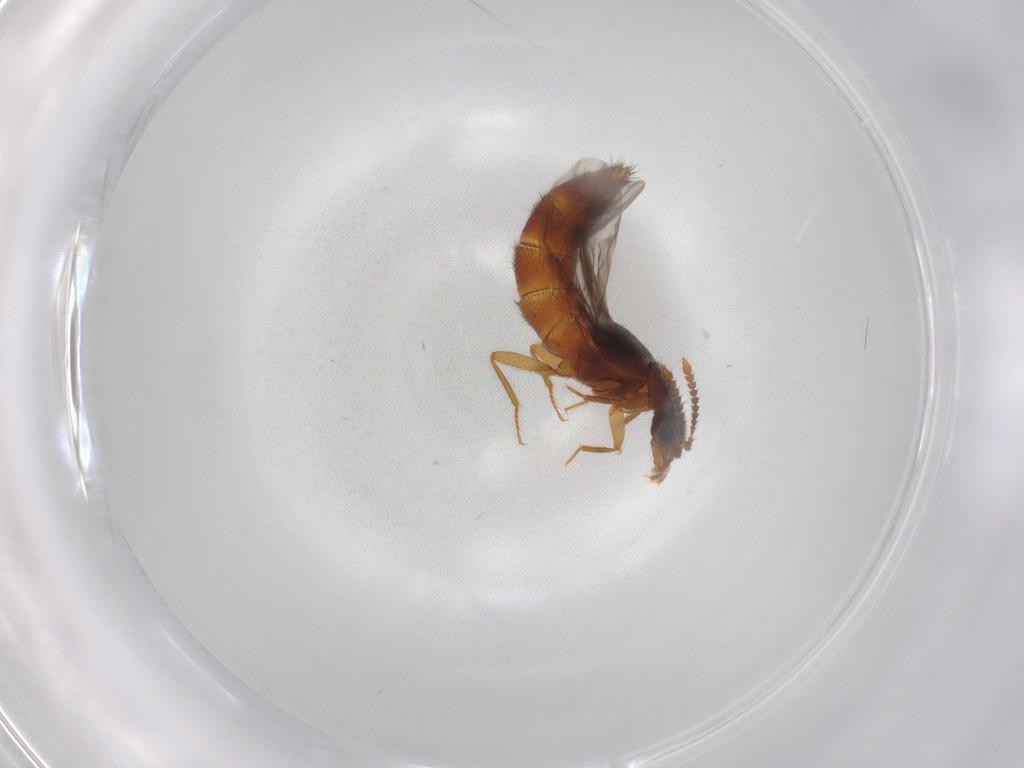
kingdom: Animalia
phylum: Arthropoda
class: Insecta
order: Coleoptera
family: Staphylinidae
